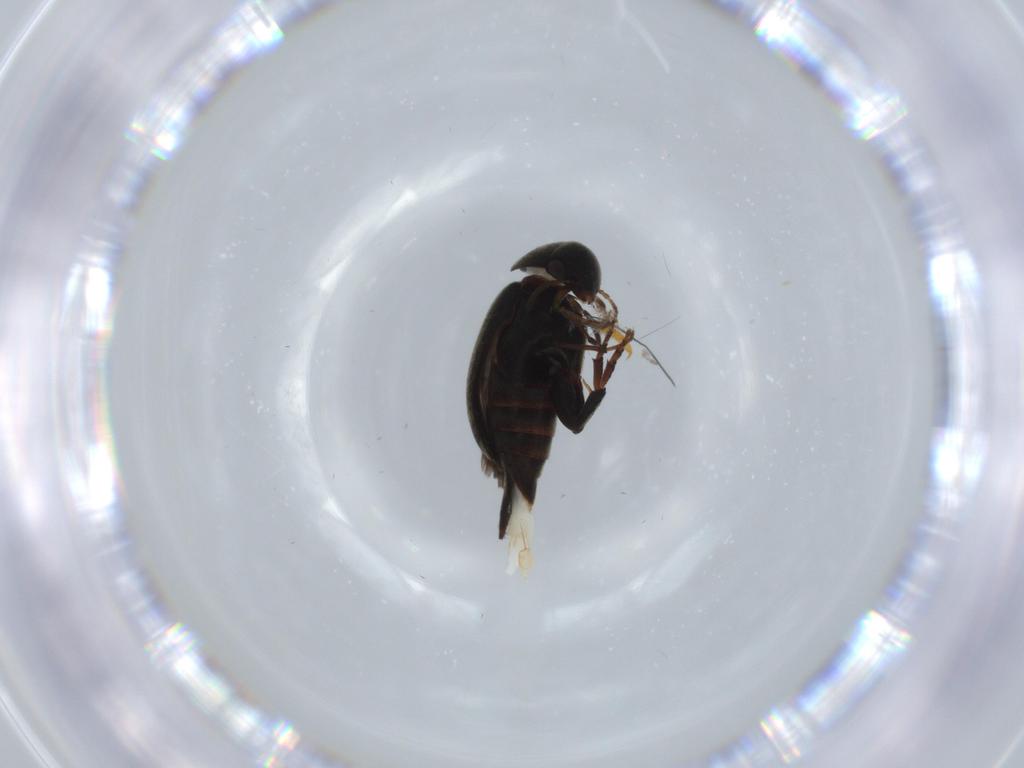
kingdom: Animalia
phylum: Arthropoda
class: Insecta
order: Coleoptera
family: Mordellidae
